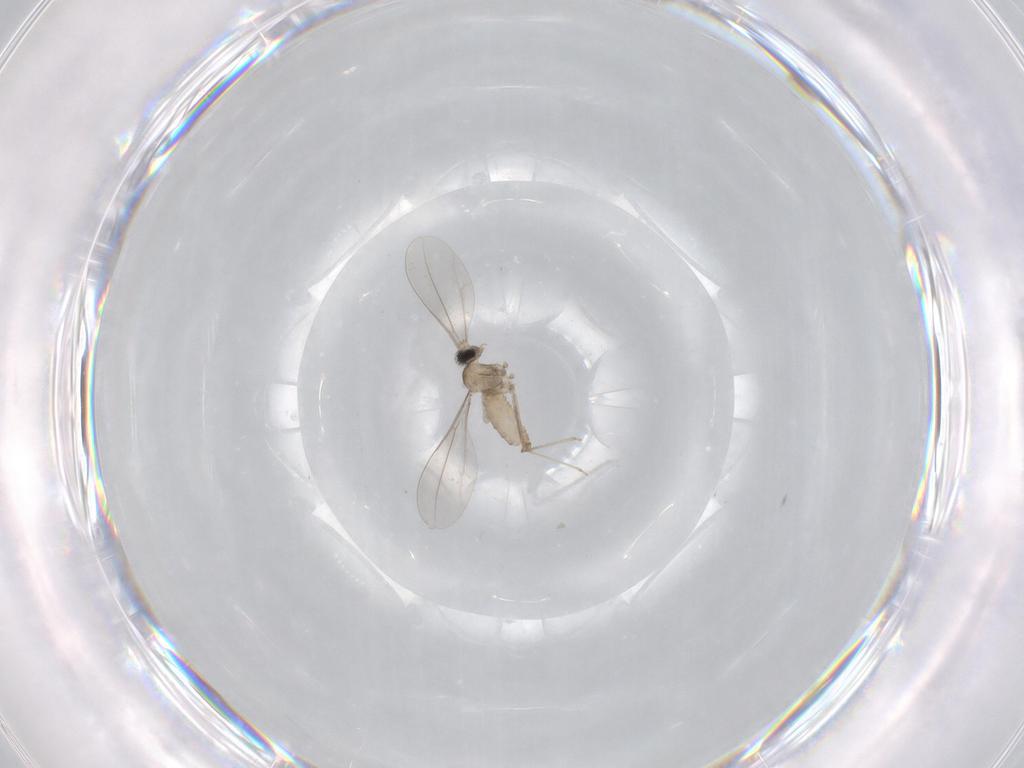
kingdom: Animalia
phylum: Arthropoda
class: Insecta
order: Diptera
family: Cecidomyiidae
